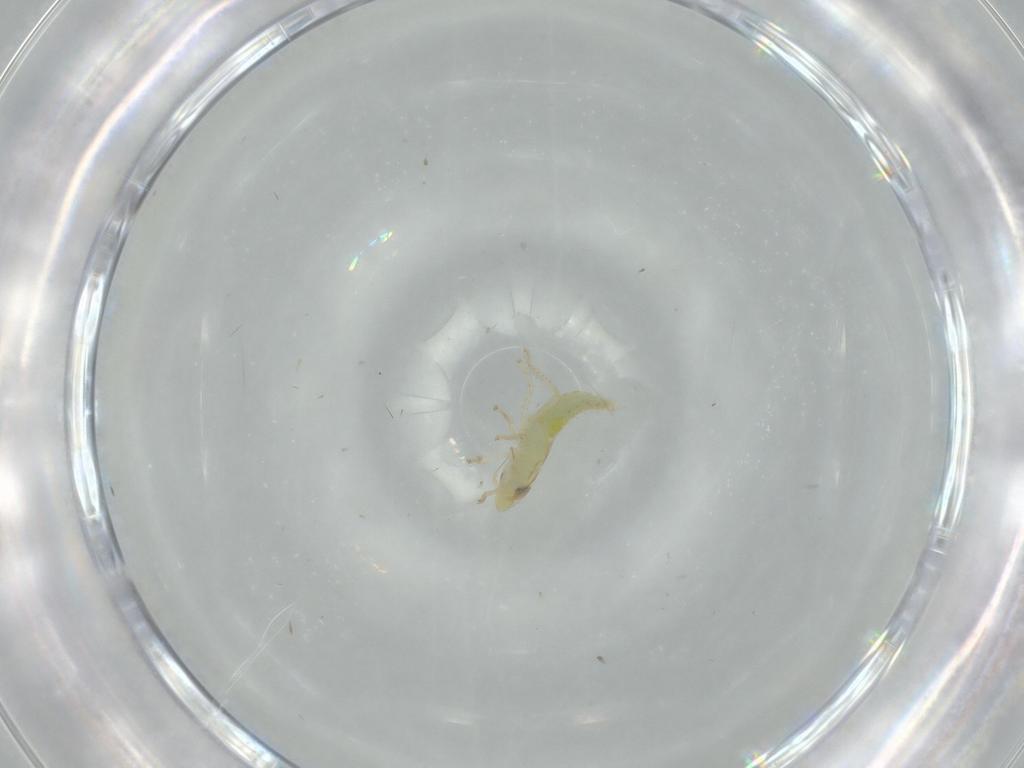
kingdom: Animalia
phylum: Arthropoda
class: Insecta
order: Hemiptera
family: Cicadellidae
